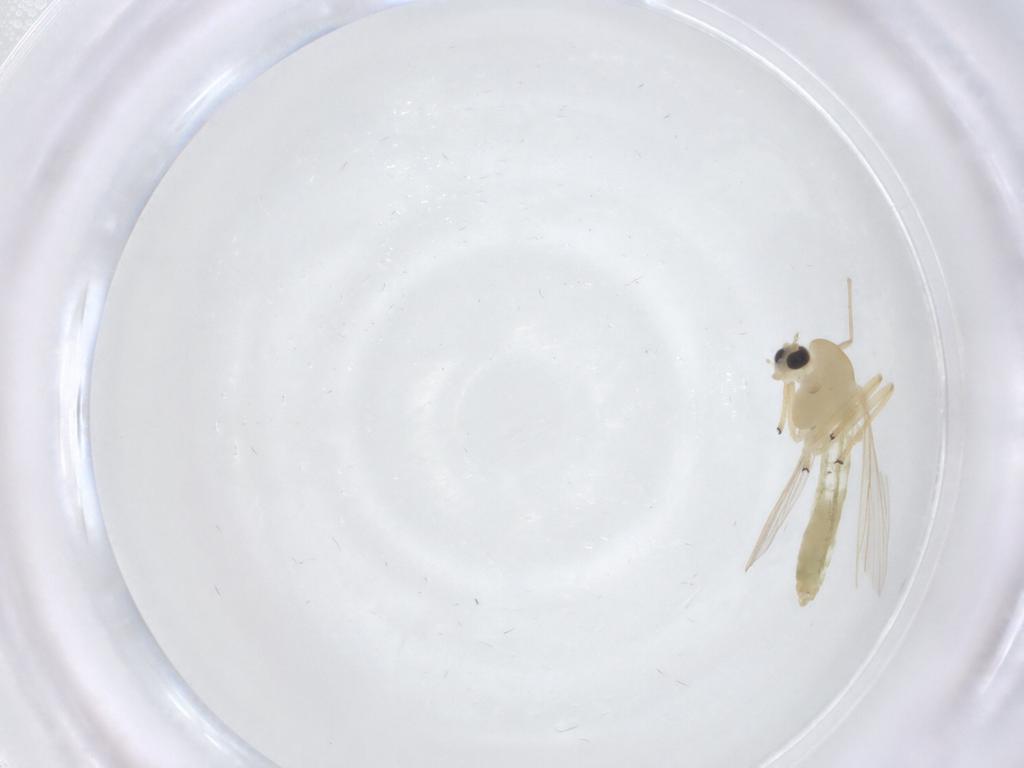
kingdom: Animalia
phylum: Arthropoda
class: Insecta
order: Diptera
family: Chironomidae
